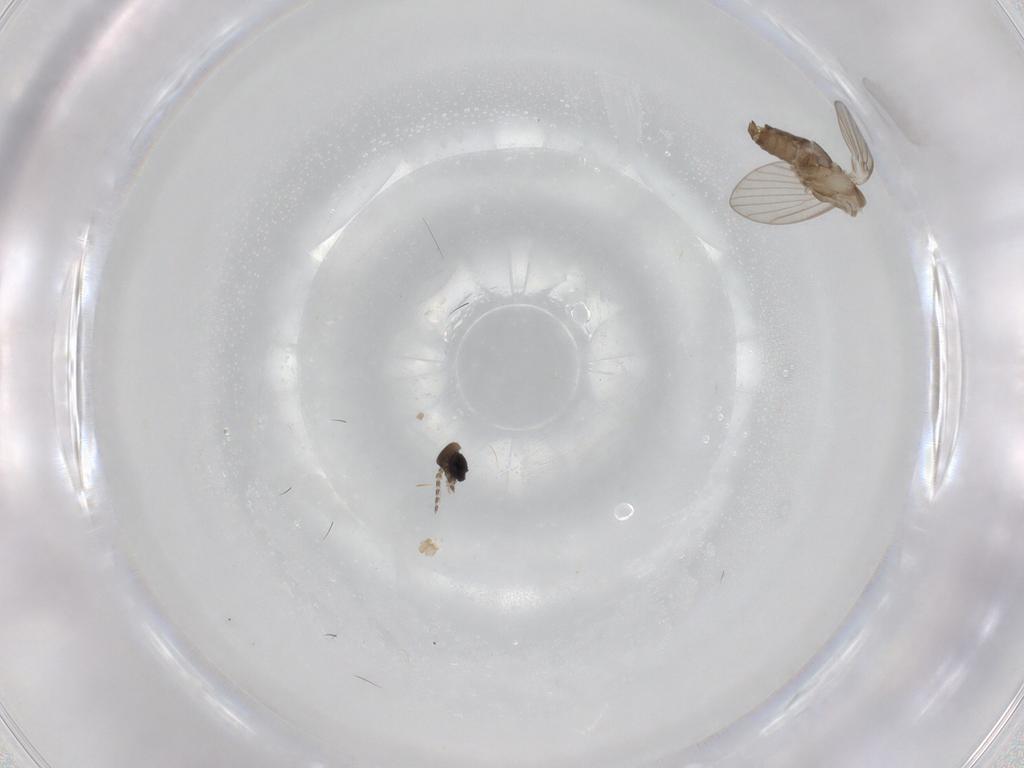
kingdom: Animalia
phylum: Arthropoda
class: Insecta
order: Diptera
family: Psychodidae
